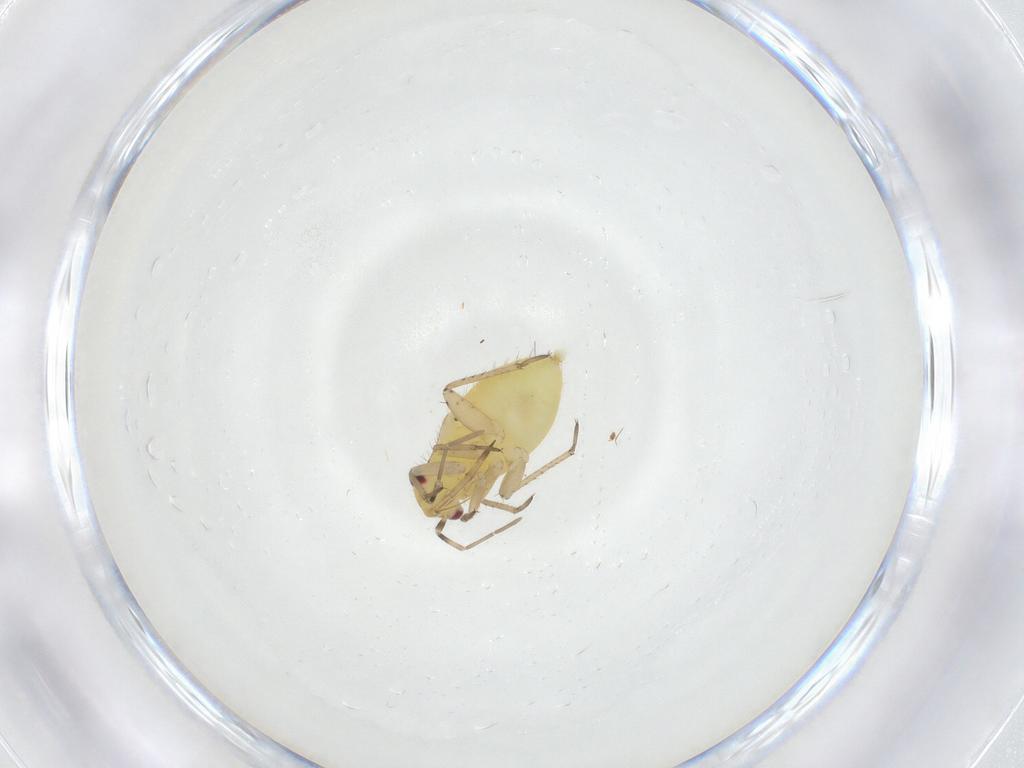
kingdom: Animalia
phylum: Arthropoda
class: Insecta
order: Hemiptera
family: Miridae
